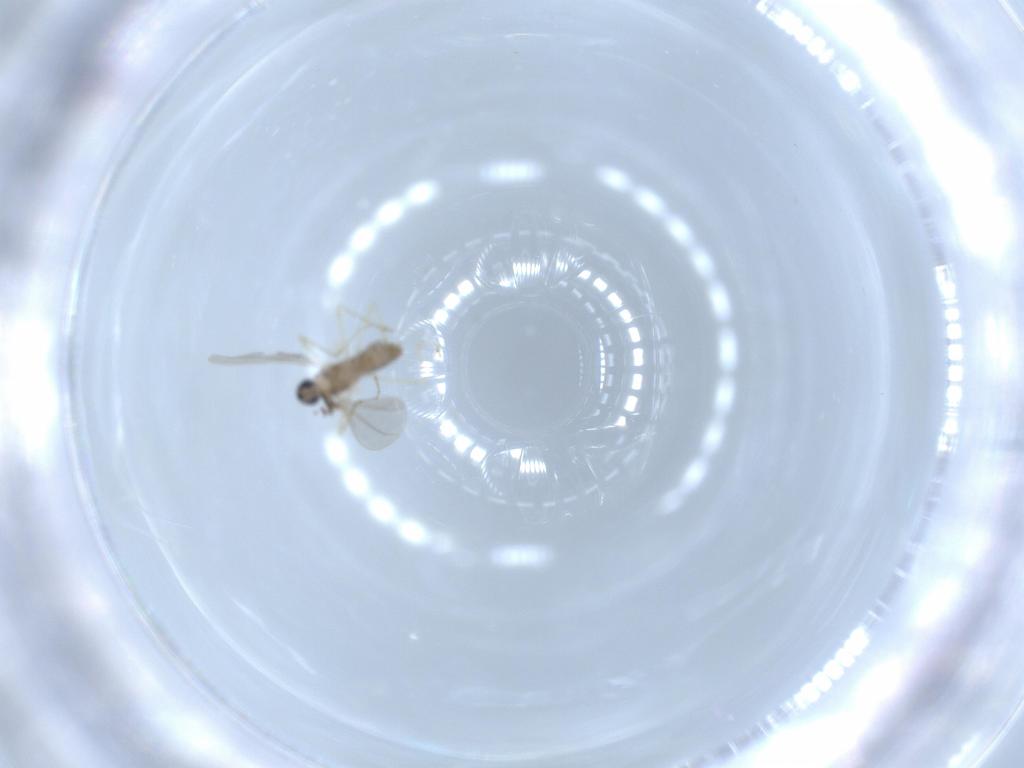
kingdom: Animalia
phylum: Arthropoda
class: Insecta
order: Diptera
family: Cecidomyiidae
